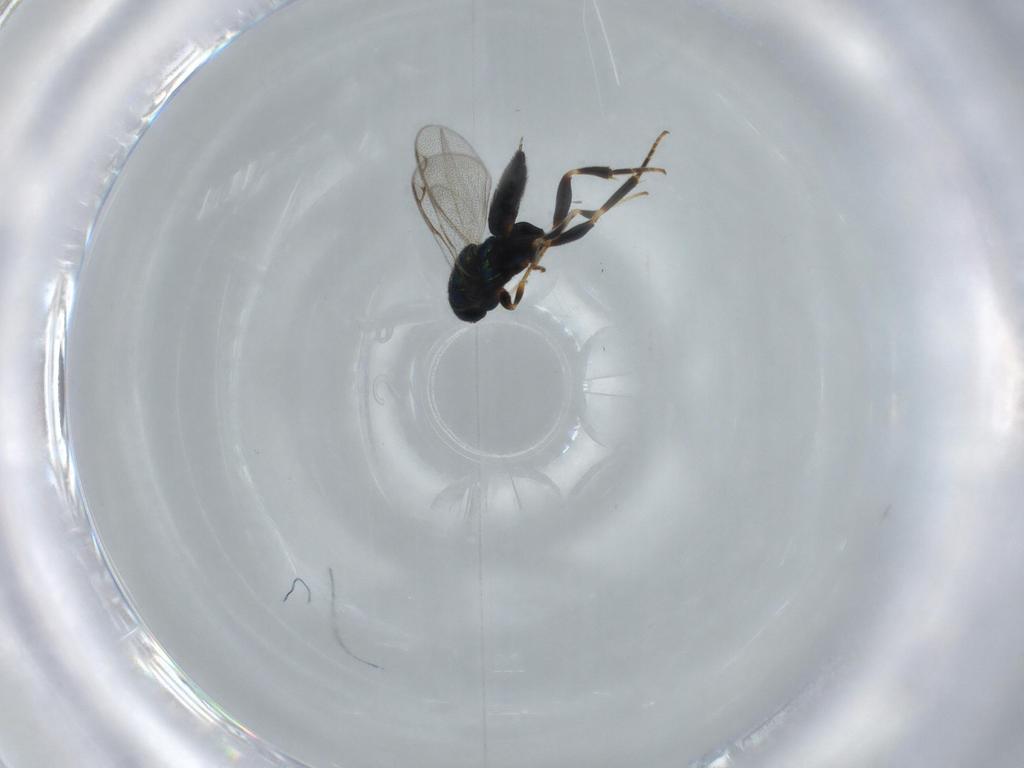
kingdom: Animalia
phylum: Arthropoda
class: Insecta
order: Hymenoptera
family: Cleonyminae
